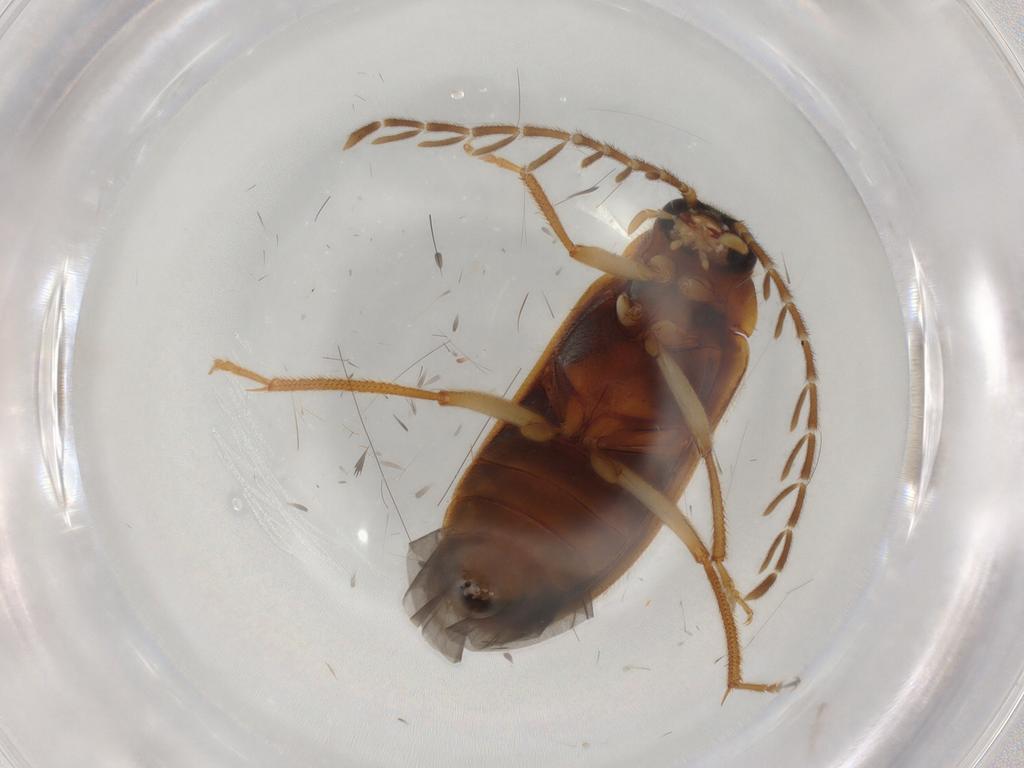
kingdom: Animalia
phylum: Arthropoda
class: Insecta
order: Coleoptera
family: Ptilodactylidae
